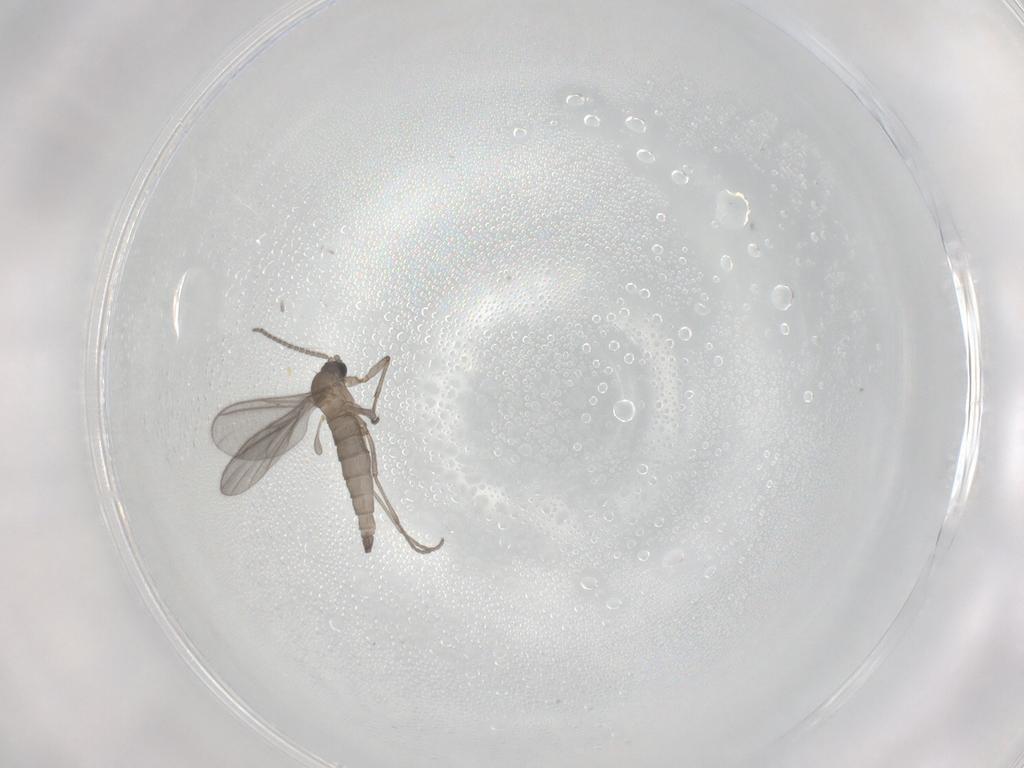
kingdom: Animalia
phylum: Arthropoda
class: Insecta
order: Diptera
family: Sciaridae
